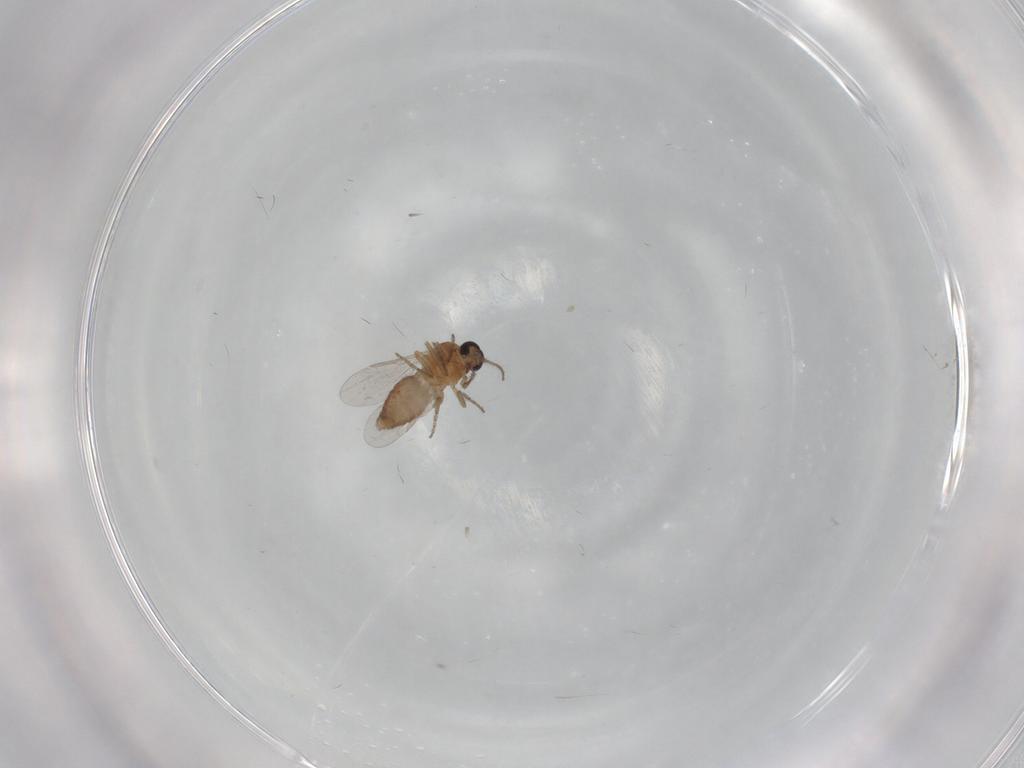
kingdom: Animalia
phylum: Arthropoda
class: Insecta
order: Diptera
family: Ceratopogonidae
